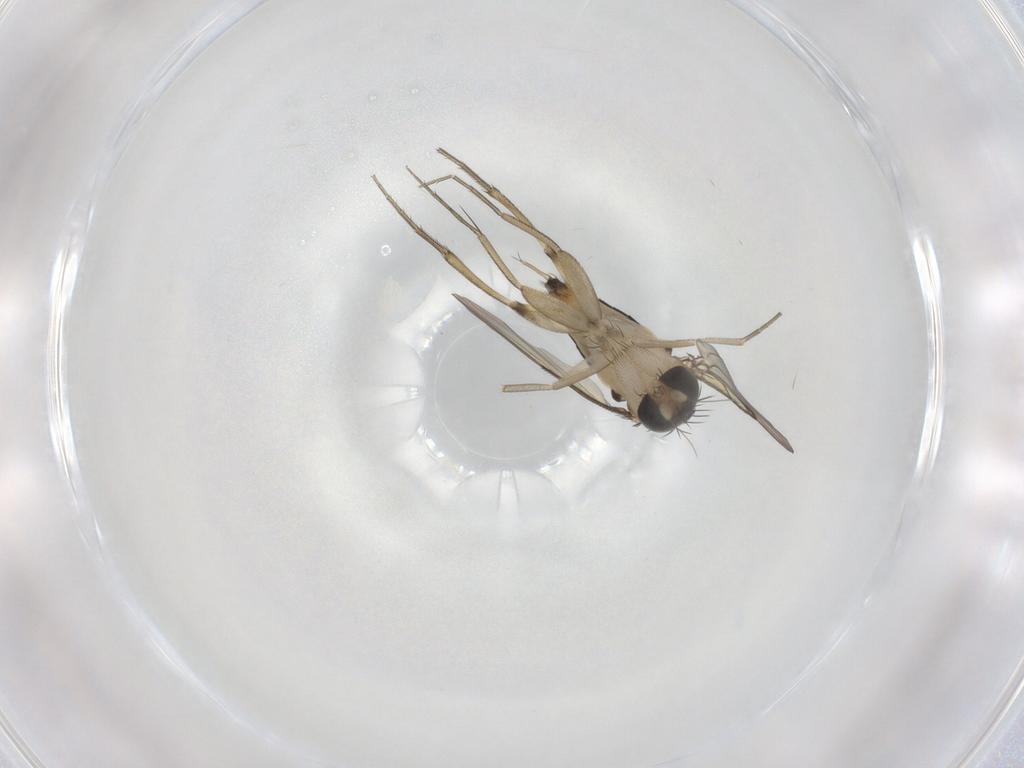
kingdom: Animalia
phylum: Arthropoda
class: Insecta
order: Diptera
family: Phoridae
